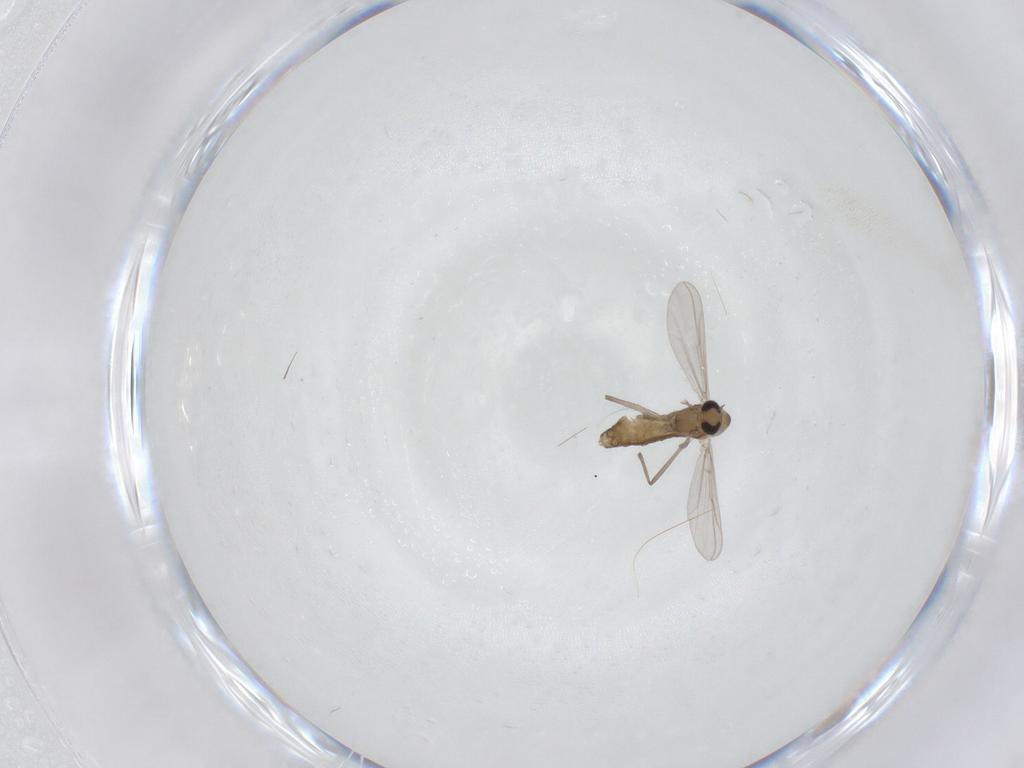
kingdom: Animalia
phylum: Arthropoda
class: Insecta
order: Diptera
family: Chironomidae
